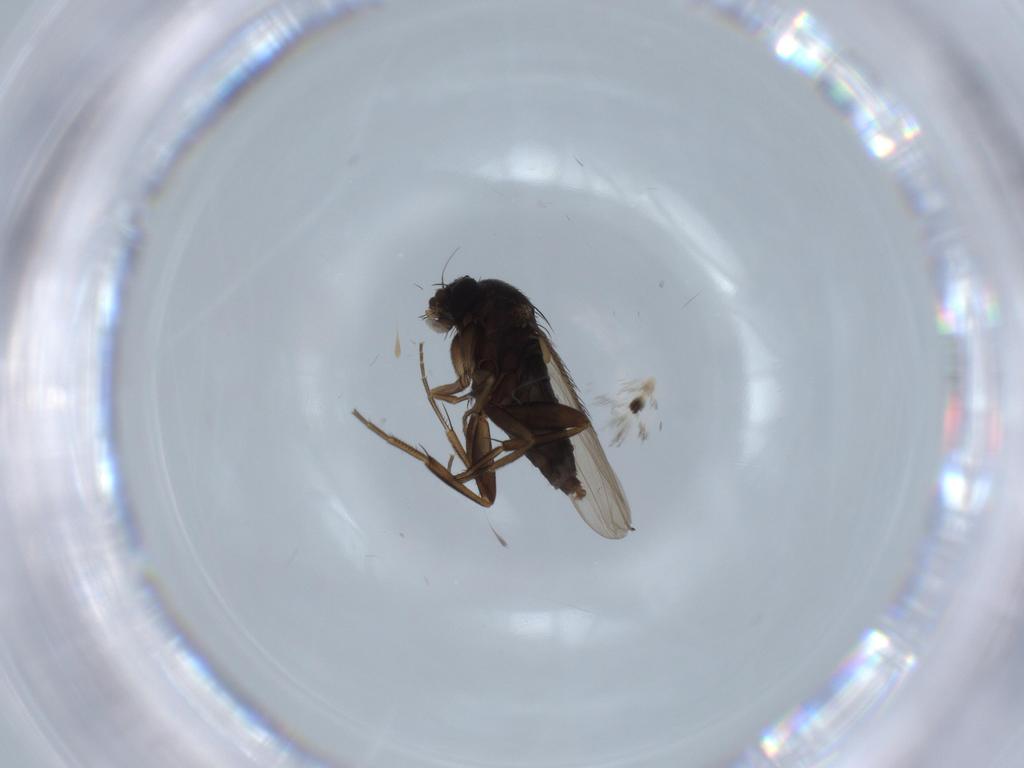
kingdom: Animalia
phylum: Arthropoda
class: Insecta
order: Diptera
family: Phoridae
